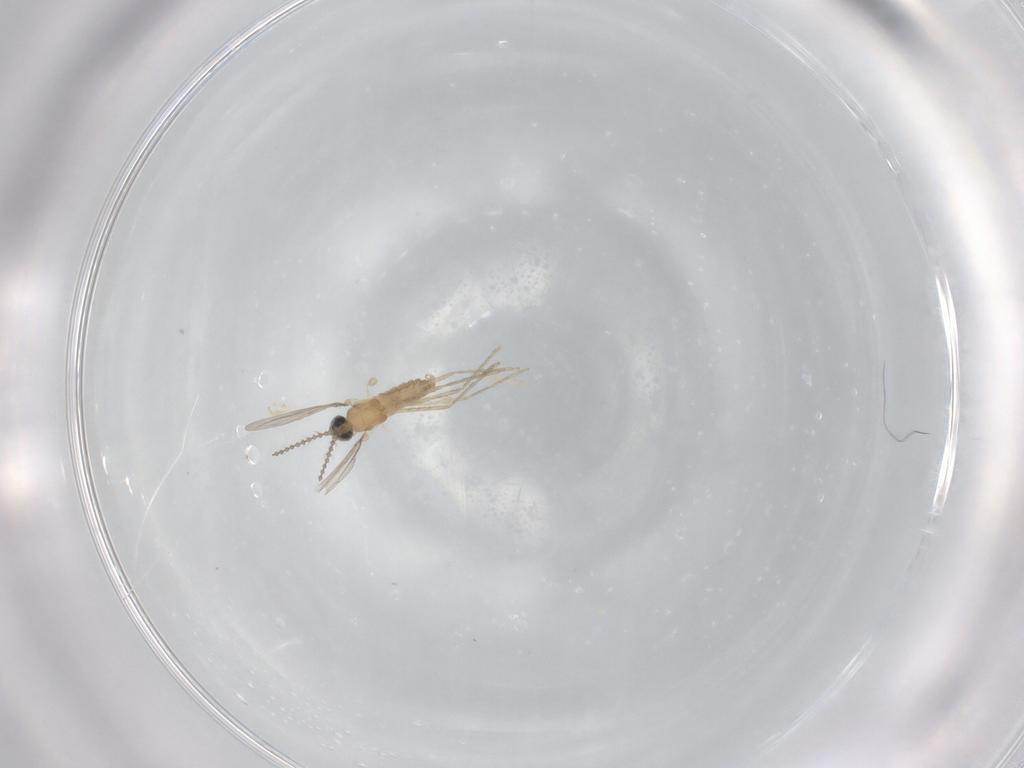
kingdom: Animalia
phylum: Arthropoda
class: Insecta
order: Diptera
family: Cecidomyiidae
